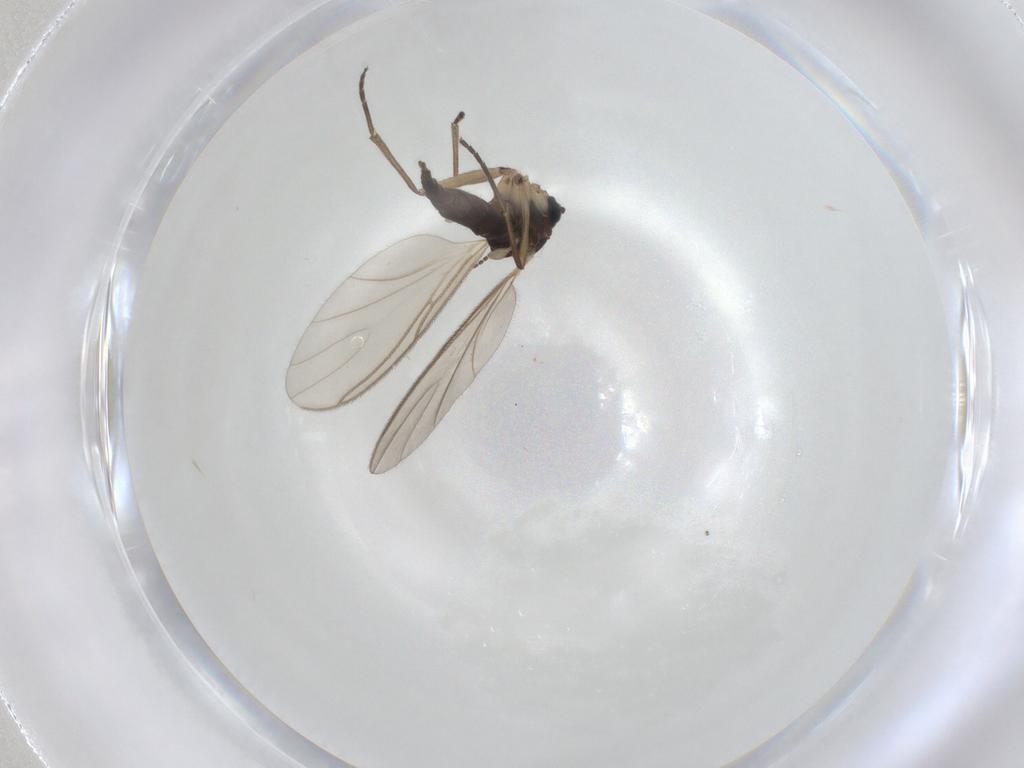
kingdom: Animalia
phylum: Arthropoda
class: Insecta
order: Diptera
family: Sciaridae
